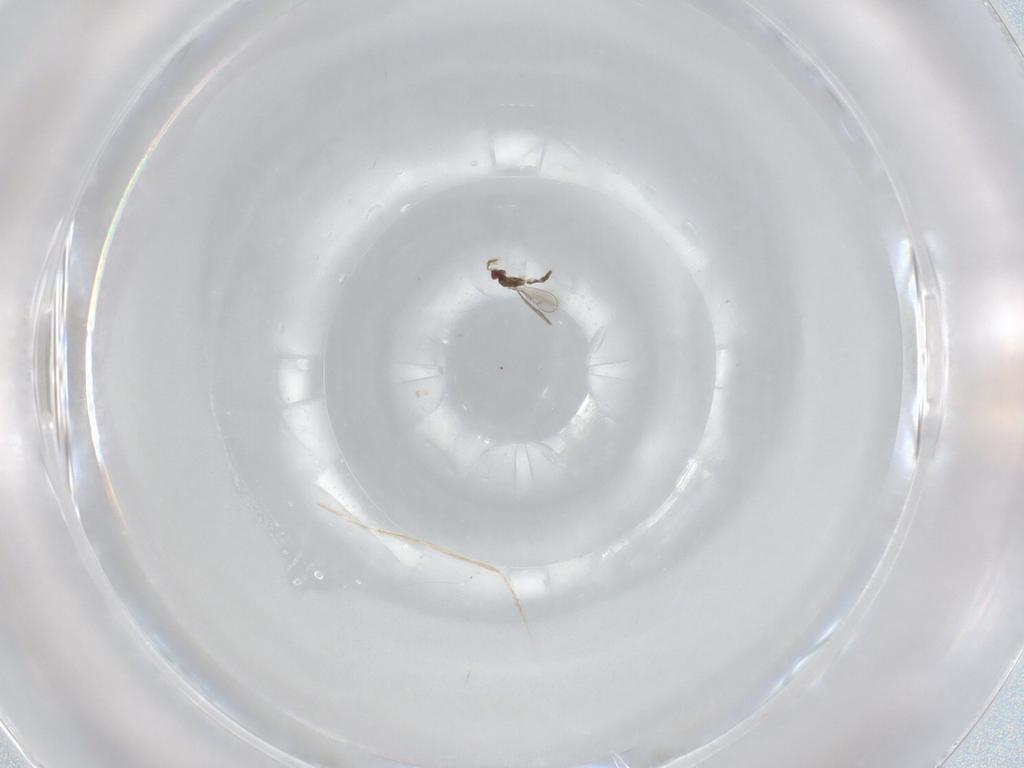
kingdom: Animalia
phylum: Arthropoda
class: Insecta
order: Hymenoptera
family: Eulophidae
